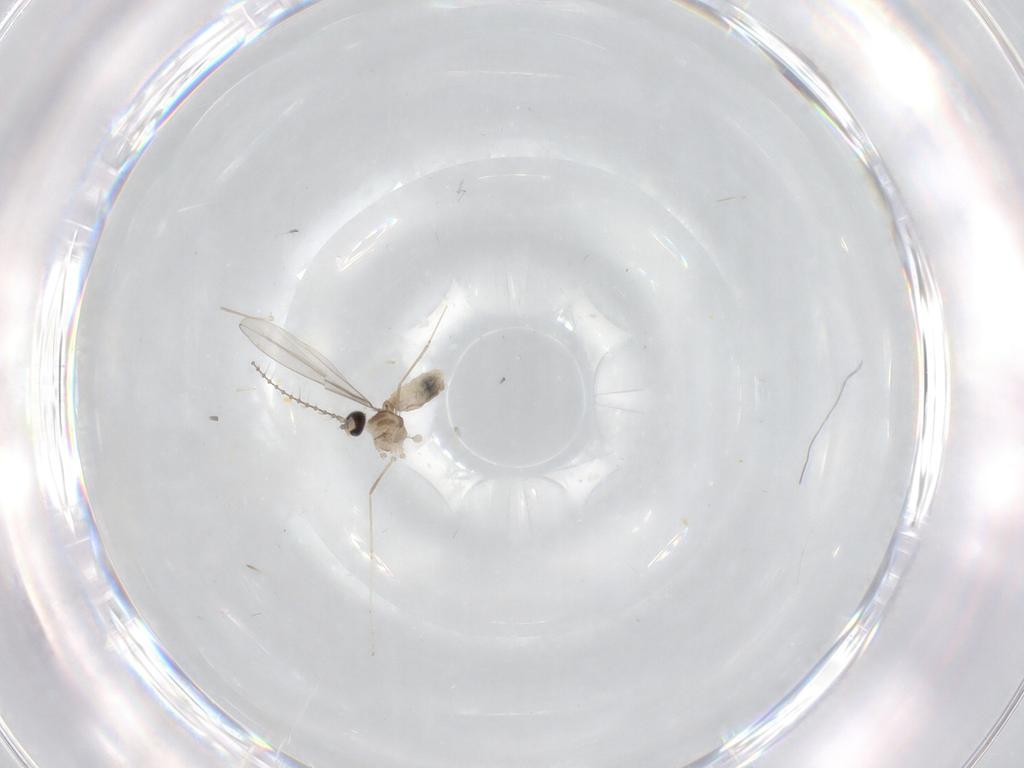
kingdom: Animalia
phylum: Arthropoda
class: Insecta
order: Diptera
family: Cecidomyiidae
